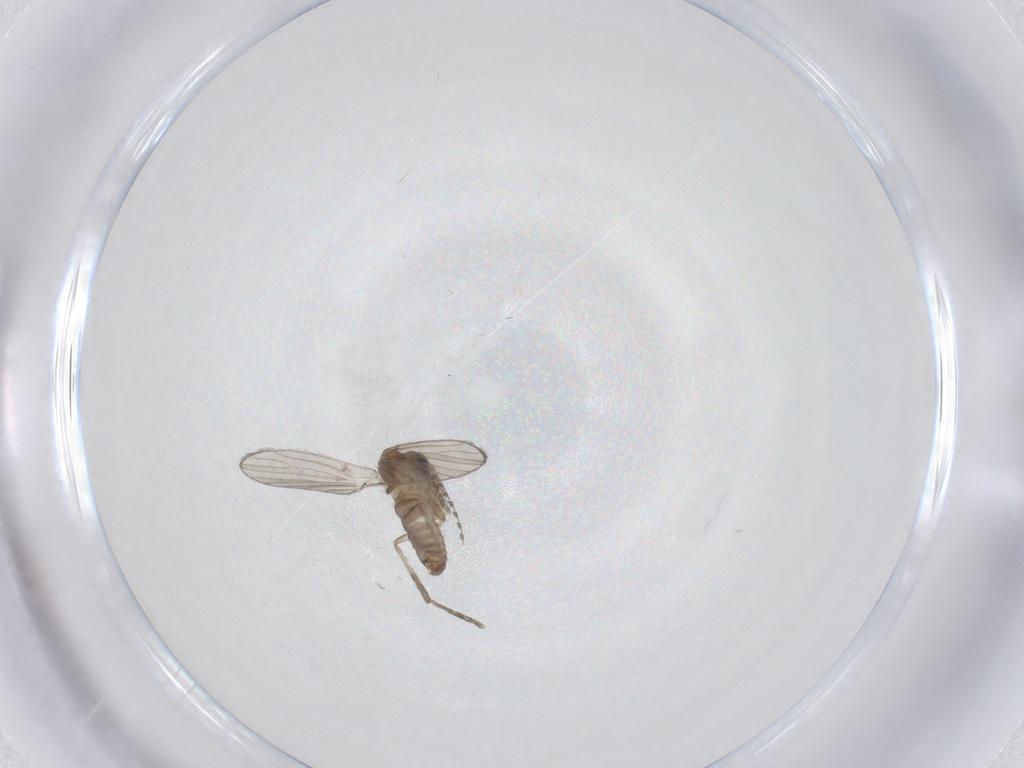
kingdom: Animalia
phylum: Arthropoda
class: Insecta
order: Diptera
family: Psychodidae
